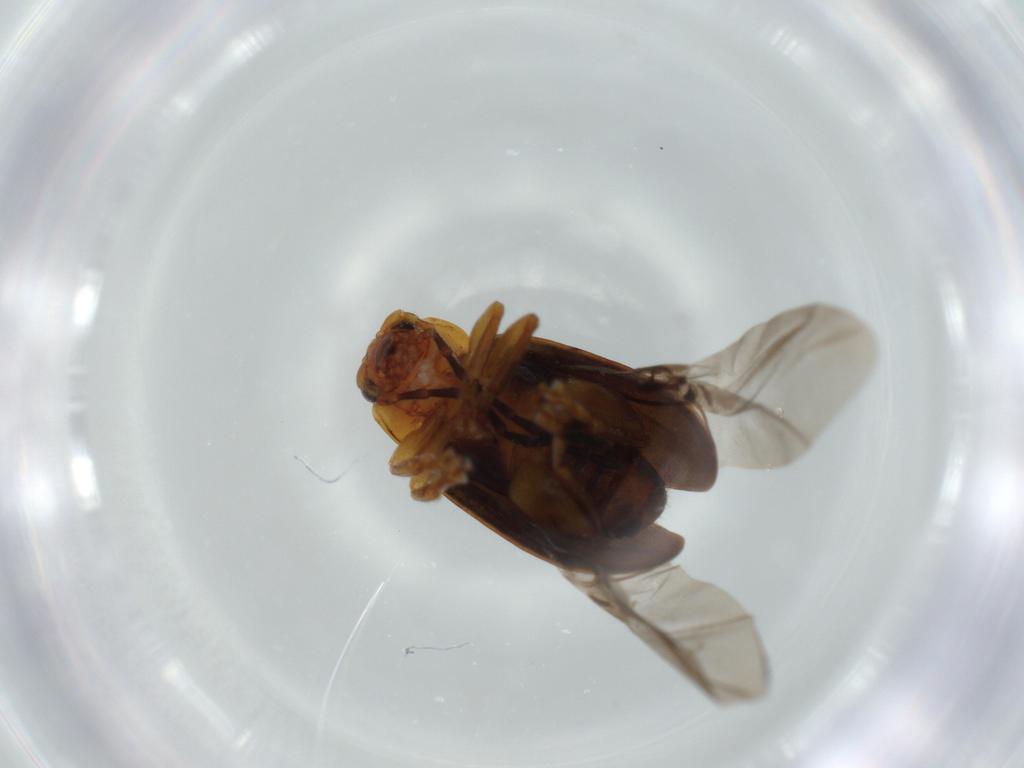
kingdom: Animalia
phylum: Arthropoda
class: Insecta
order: Coleoptera
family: Chrysomelidae
